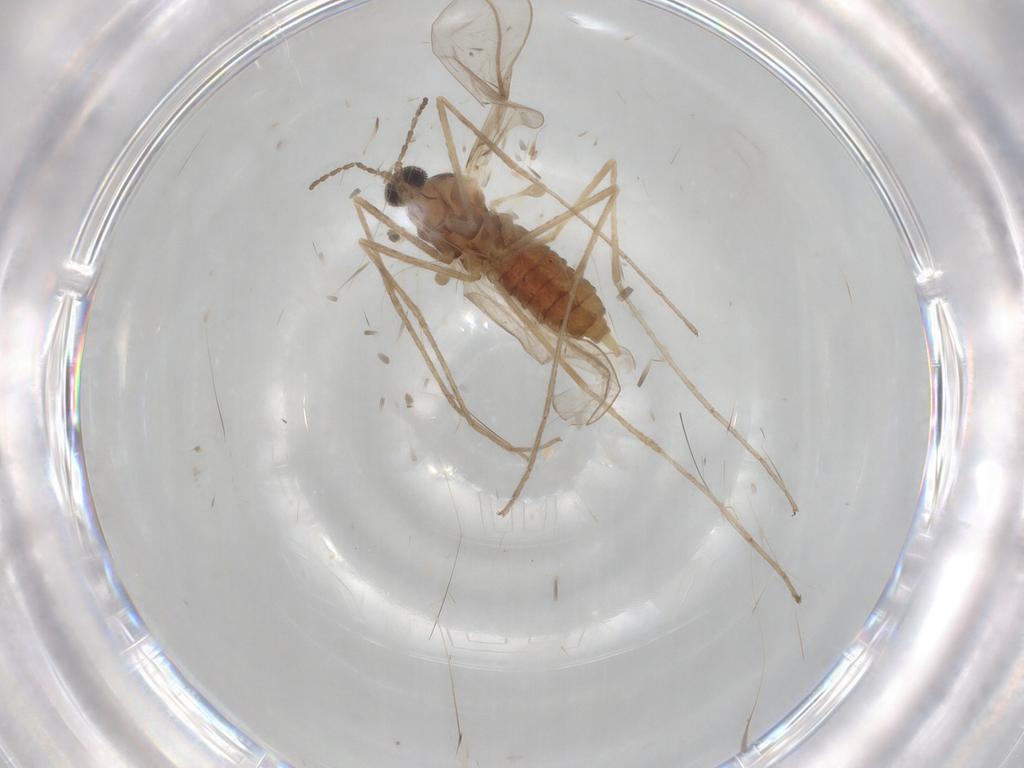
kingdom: Animalia
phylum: Arthropoda
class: Insecta
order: Diptera
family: Cecidomyiidae
